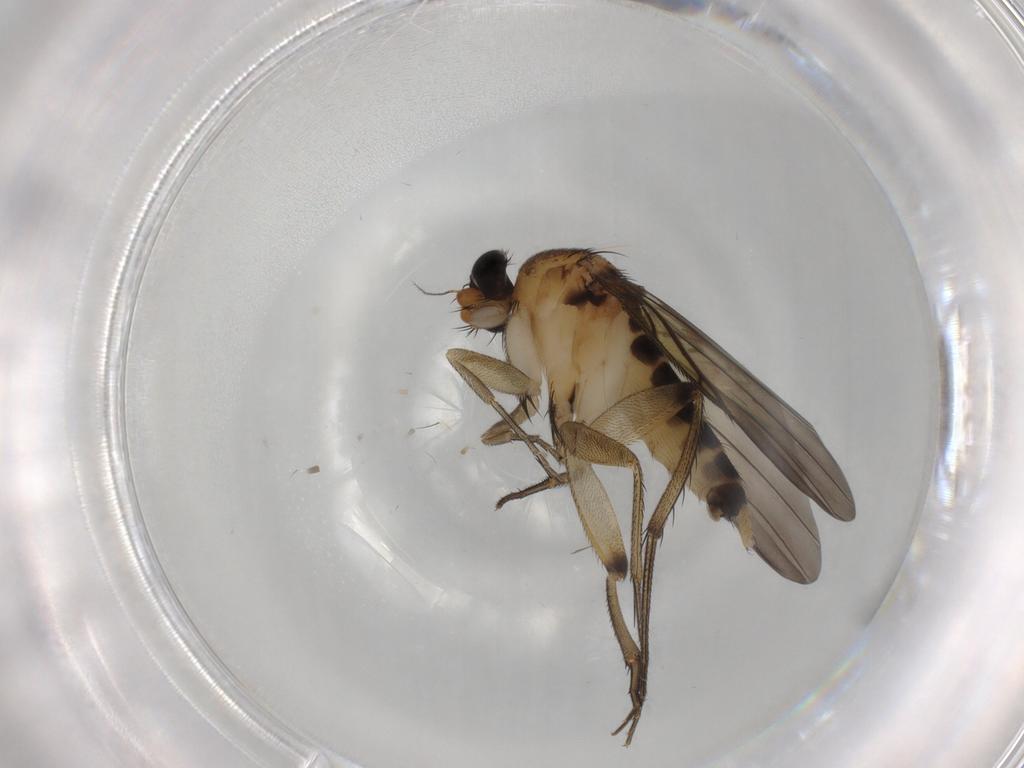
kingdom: Animalia
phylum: Arthropoda
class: Insecta
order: Diptera
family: Phoridae
